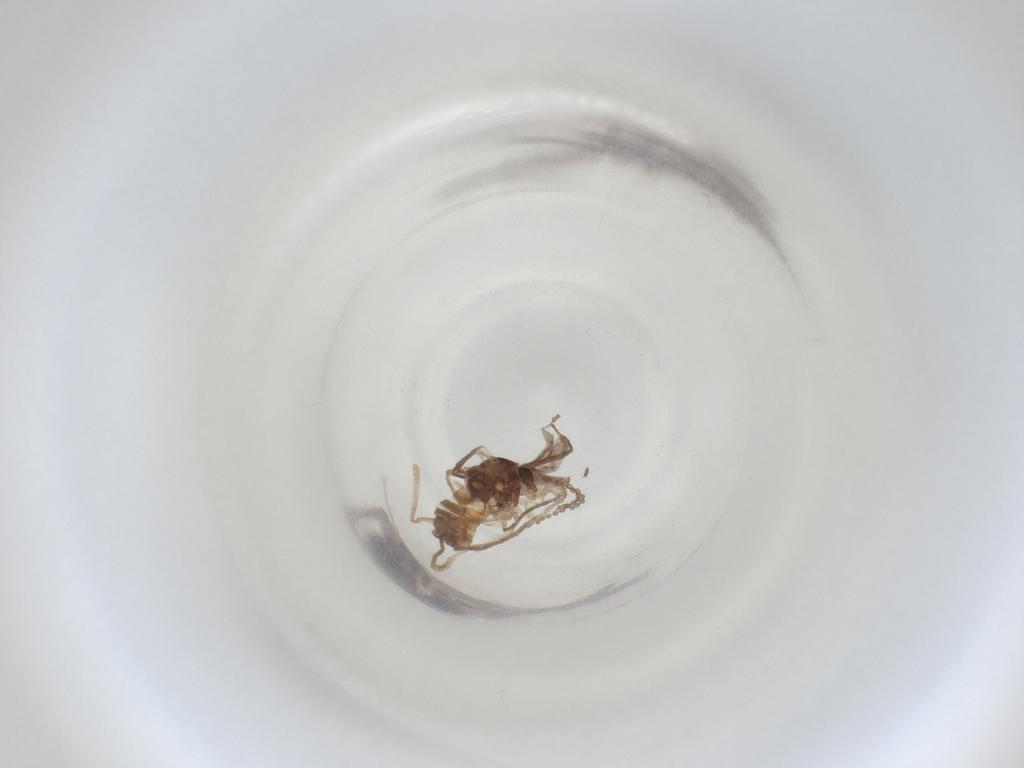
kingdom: Animalia
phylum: Arthropoda
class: Insecta
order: Diptera
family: Cecidomyiidae
